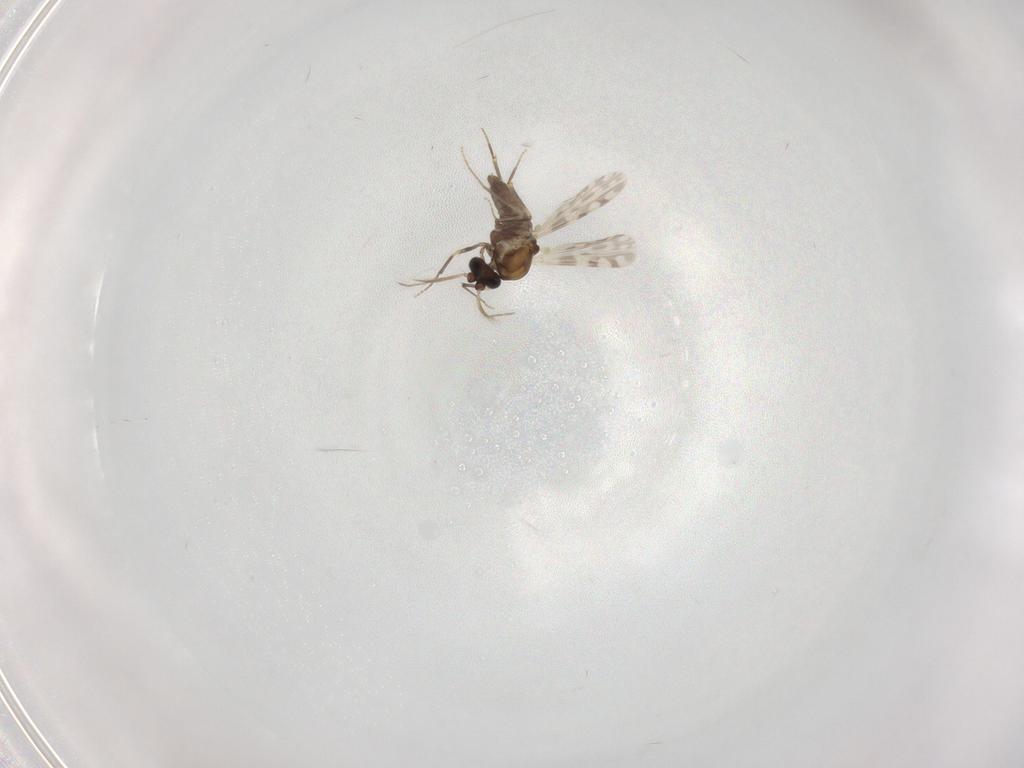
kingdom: Animalia
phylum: Arthropoda
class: Insecta
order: Diptera
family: Ceratopogonidae
